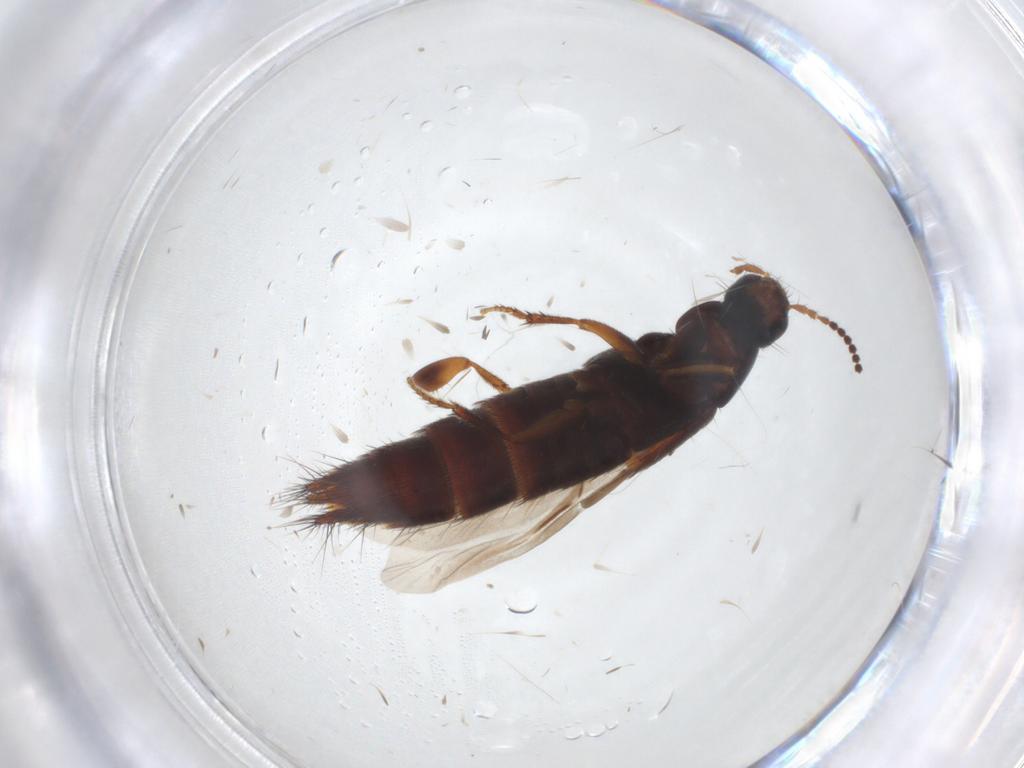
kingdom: Animalia
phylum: Arthropoda
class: Insecta
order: Coleoptera
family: Staphylinidae
